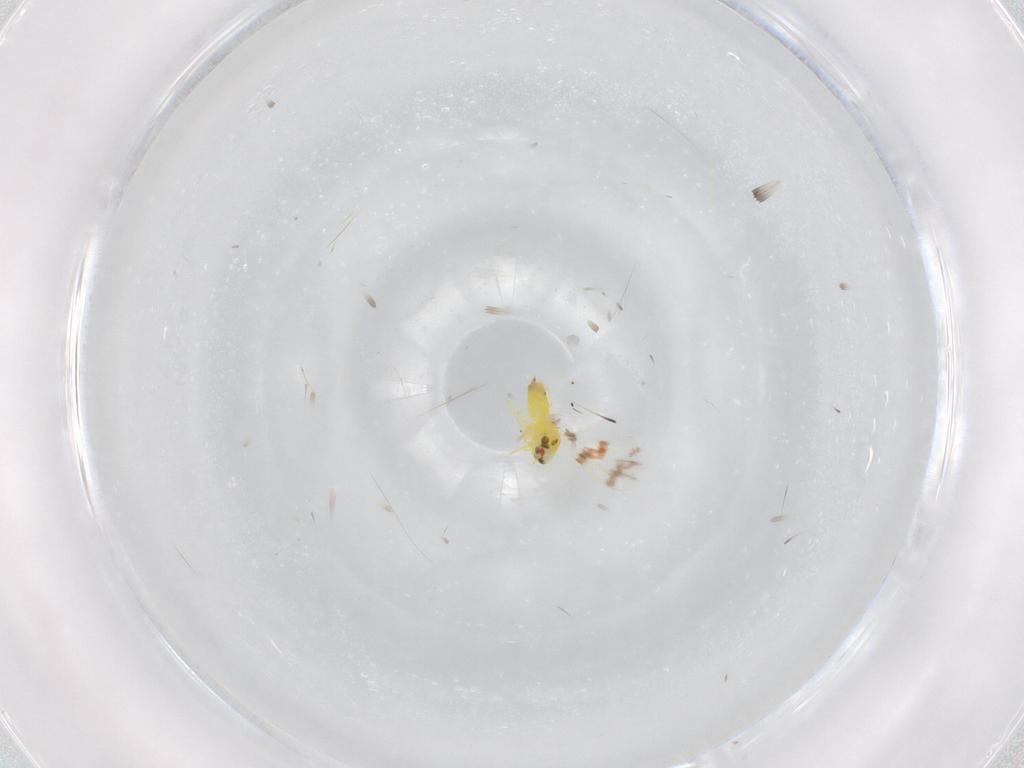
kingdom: Animalia
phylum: Arthropoda
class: Insecta
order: Hemiptera
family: Aleyrodidae
